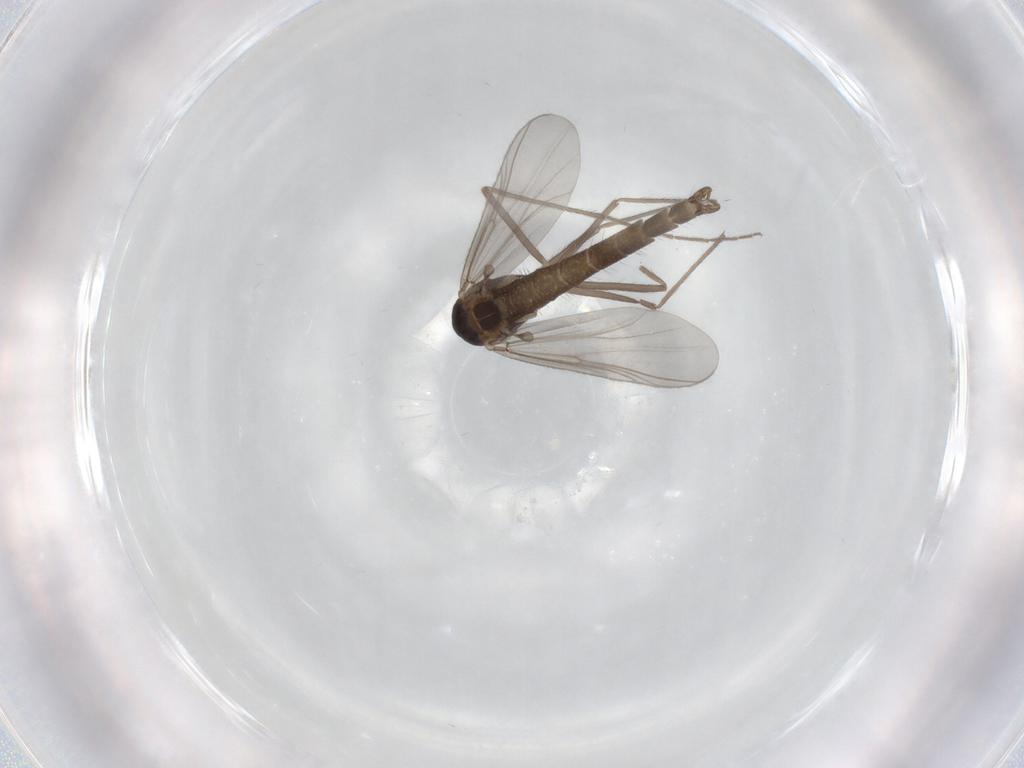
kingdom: Animalia
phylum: Arthropoda
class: Insecta
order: Diptera
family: Chironomidae
